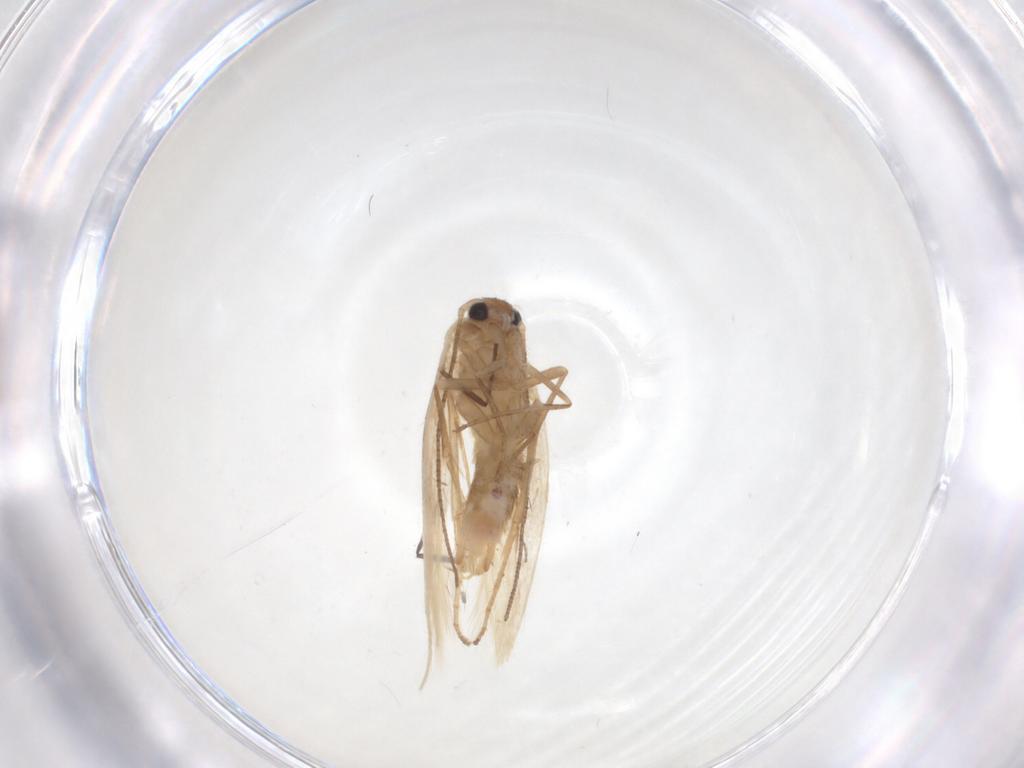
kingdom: Animalia
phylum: Arthropoda
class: Insecta
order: Lepidoptera
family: Bucculatricidae
